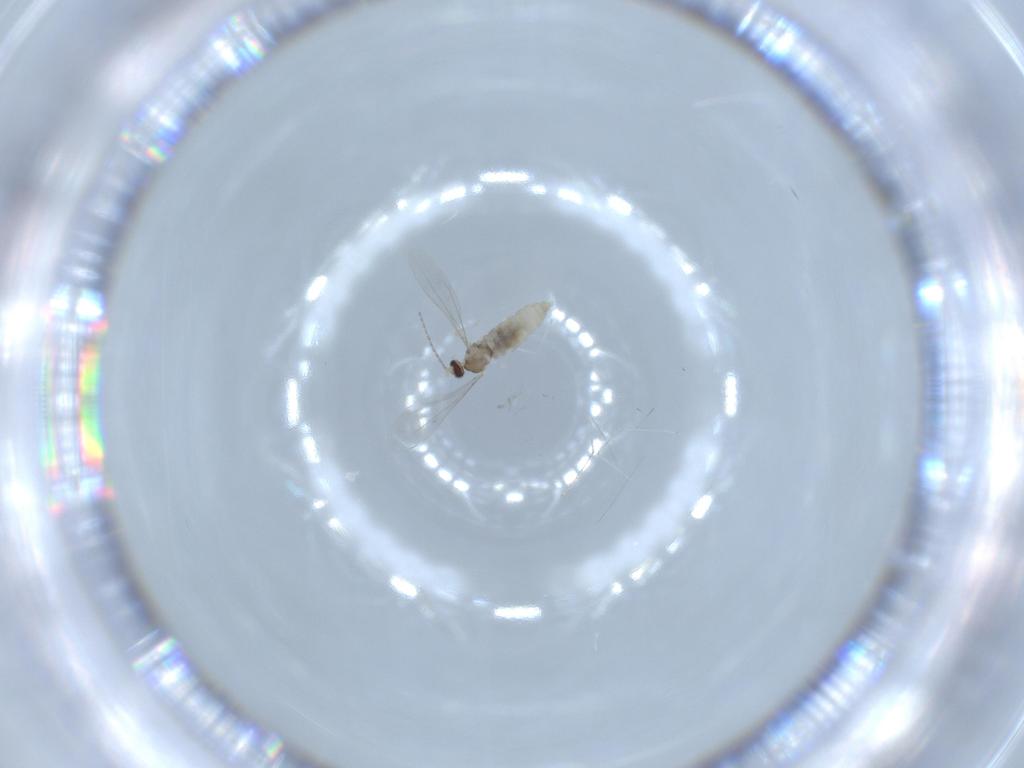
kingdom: Animalia
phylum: Arthropoda
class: Insecta
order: Diptera
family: Cecidomyiidae
